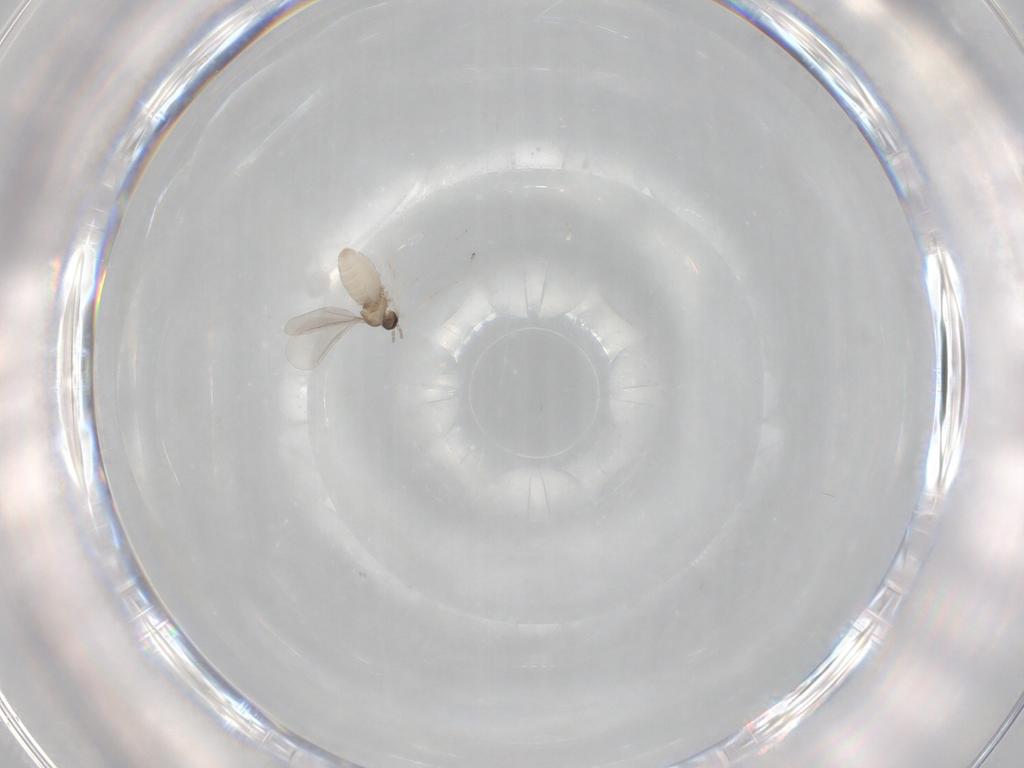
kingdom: Animalia
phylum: Arthropoda
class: Insecta
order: Diptera
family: Cecidomyiidae
